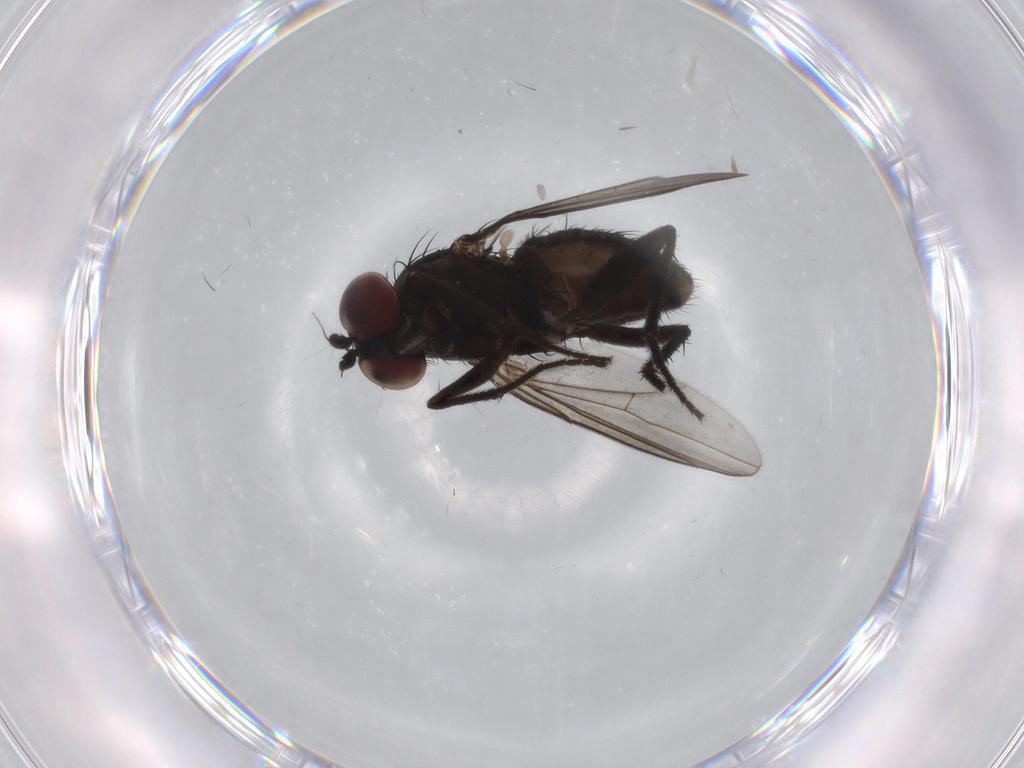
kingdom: Animalia
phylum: Arthropoda
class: Insecta
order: Diptera
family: Dolichopodidae
